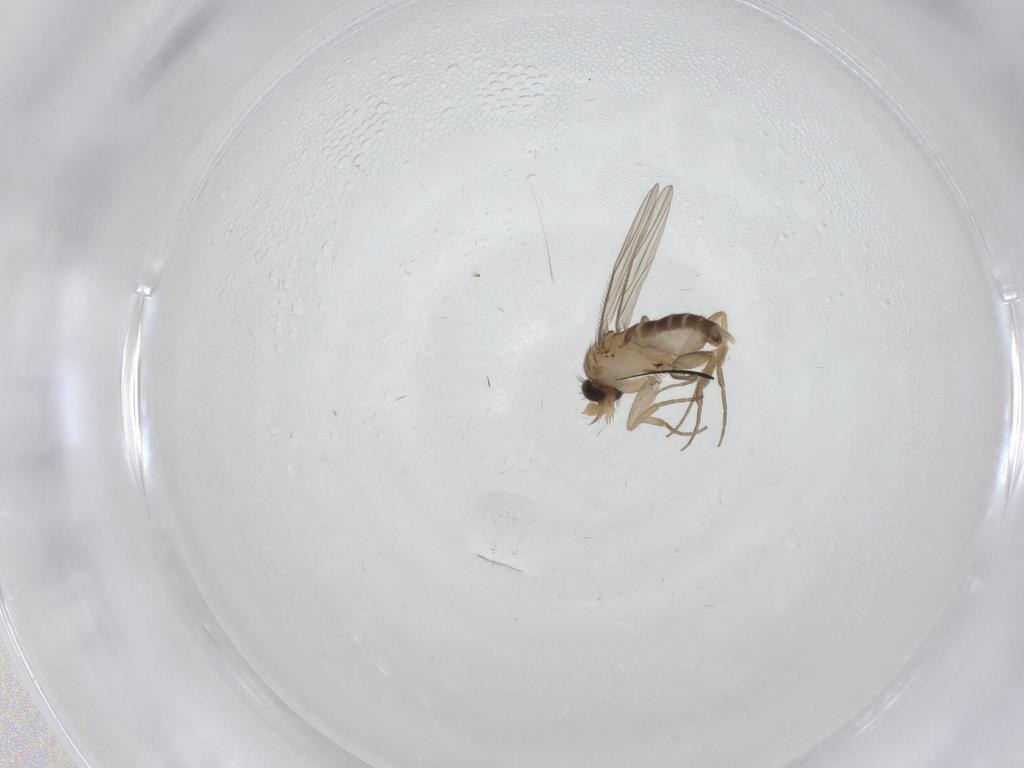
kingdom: Animalia
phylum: Arthropoda
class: Insecta
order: Diptera
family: Phoridae
